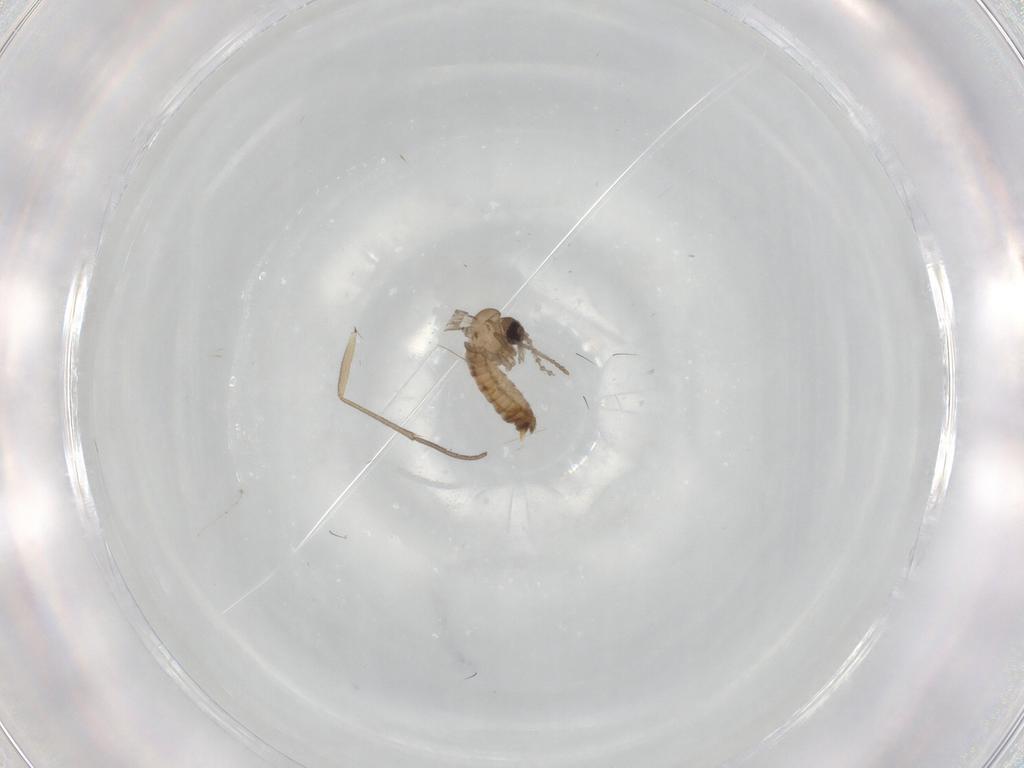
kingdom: Animalia
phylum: Arthropoda
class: Insecta
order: Diptera
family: Psychodidae
